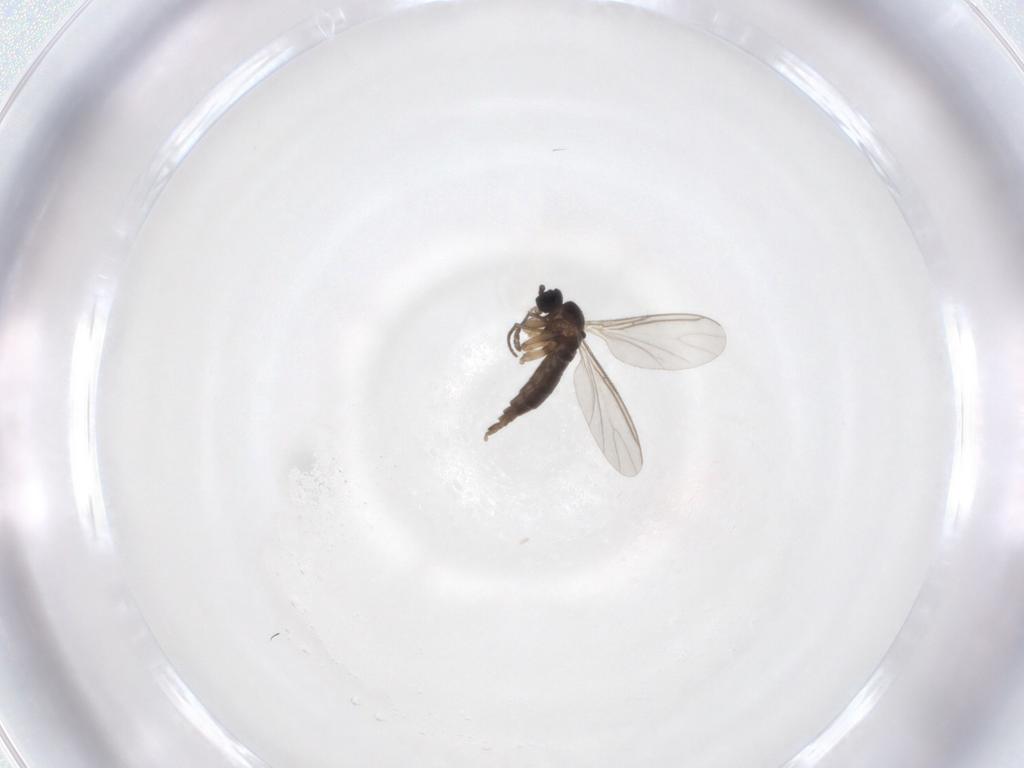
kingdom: Animalia
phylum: Arthropoda
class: Insecta
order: Diptera
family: Sciaridae
